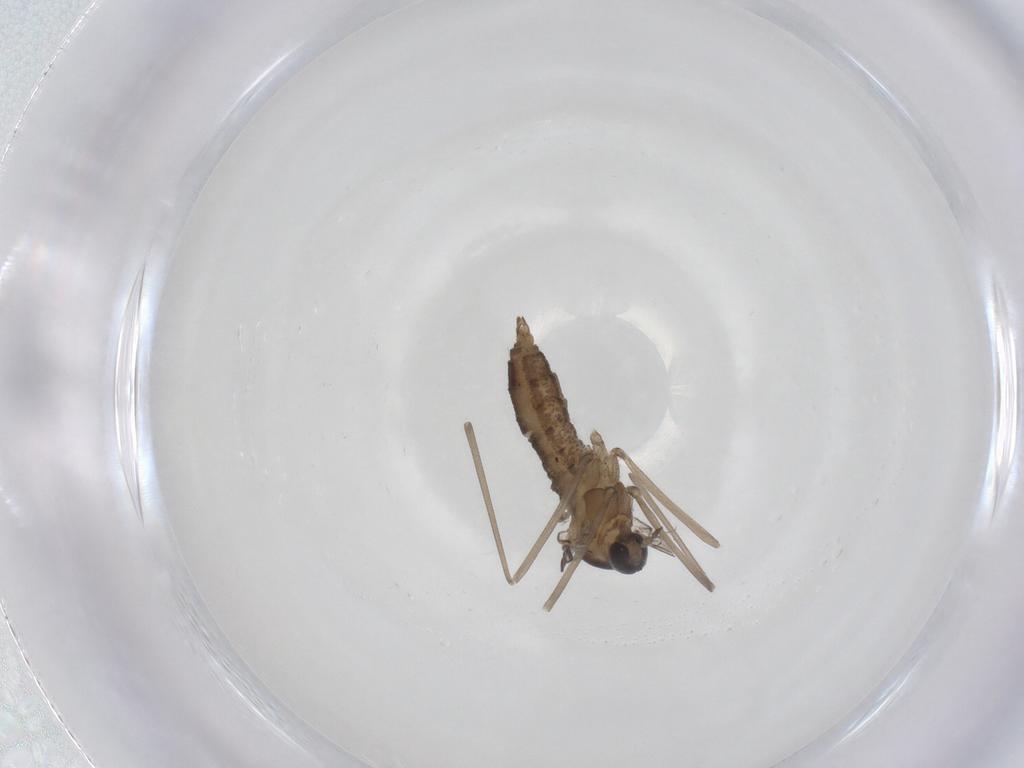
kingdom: Animalia
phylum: Arthropoda
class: Insecta
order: Diptera
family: Cecidomyiidae
